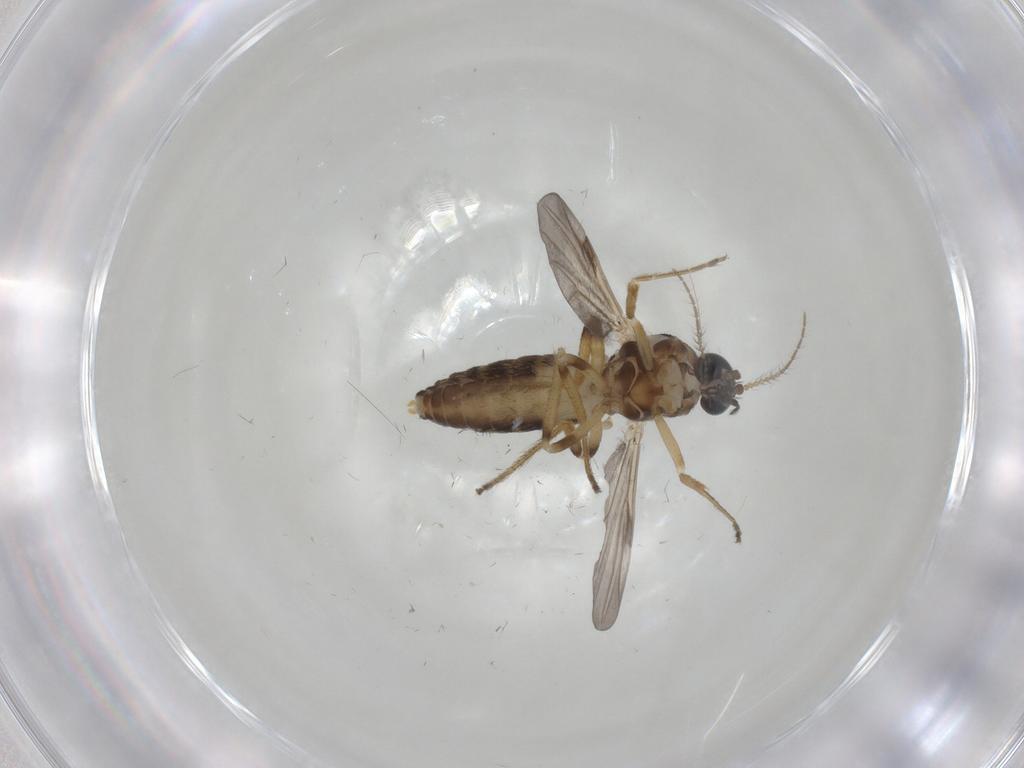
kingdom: Animalia
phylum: Arthropoda
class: Insecta
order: Diptera
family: Ceratopogonidae
